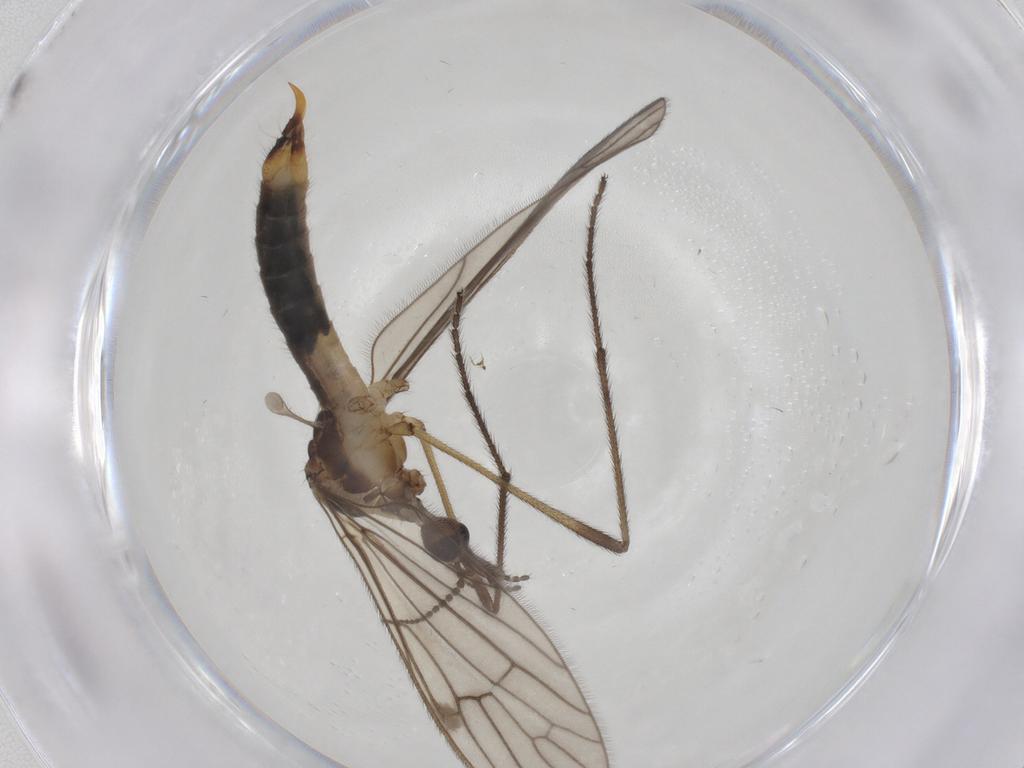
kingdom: Animalia
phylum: Arthropoda
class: Insecta
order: Diptera
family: Limoniidae
